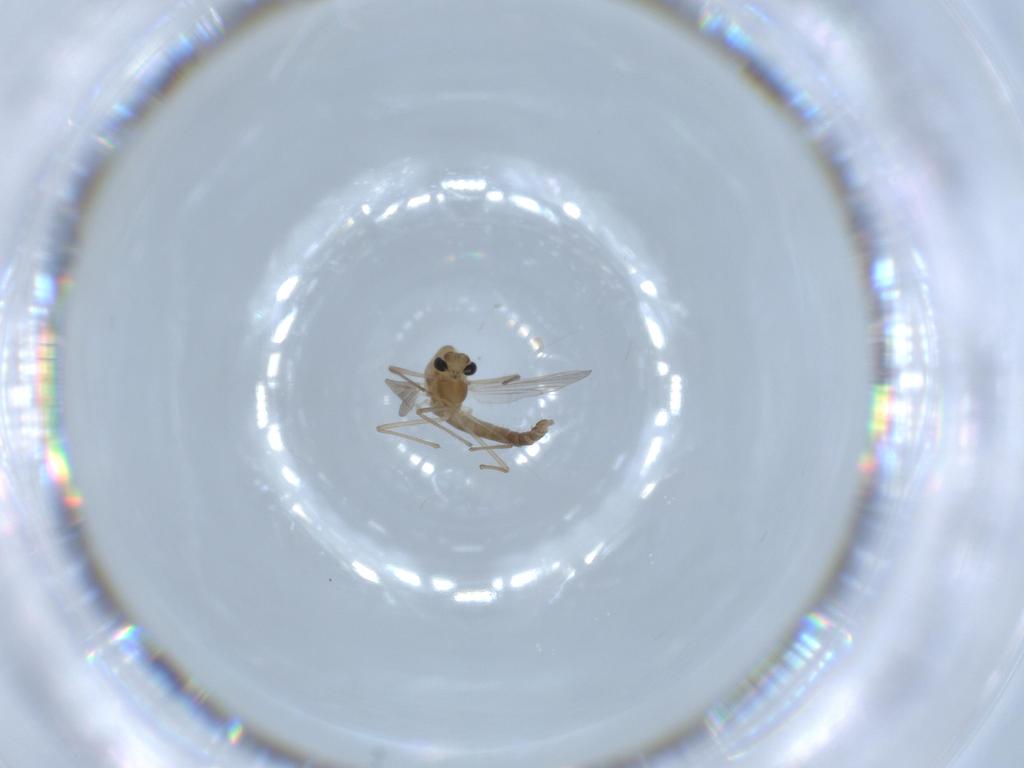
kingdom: Animalia
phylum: Arthropoda
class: Insecta
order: Diptera
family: Chironomidae
